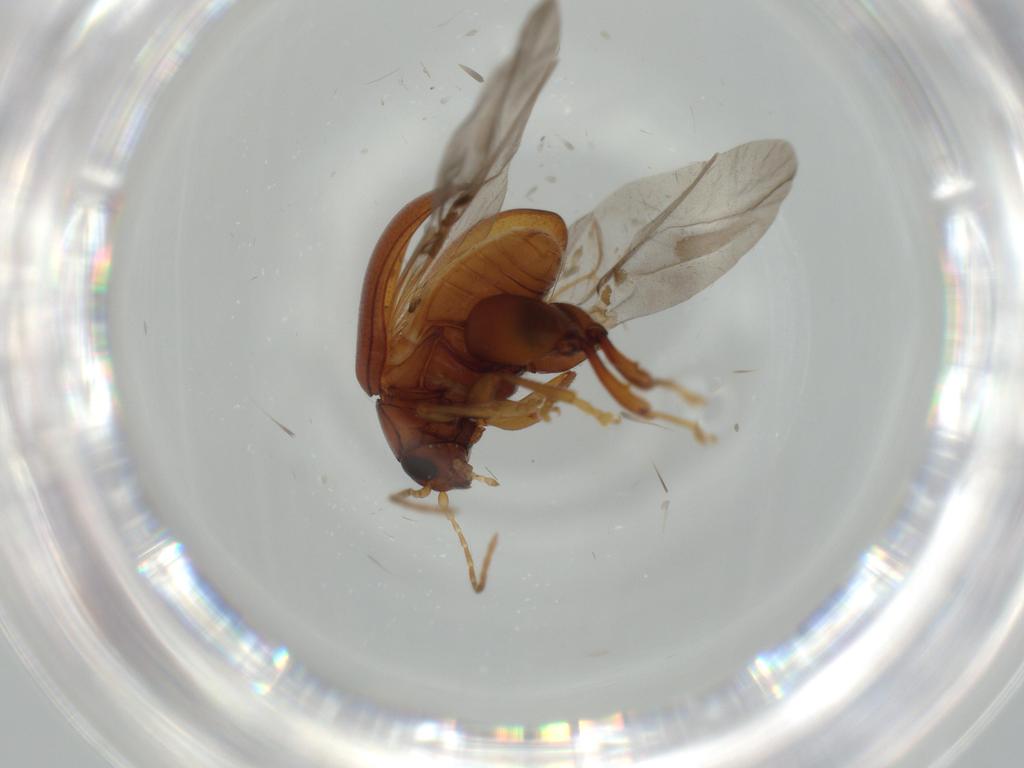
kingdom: Animalia
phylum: Arthropoda
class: Insecta
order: Coleoptera
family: Chrysomelidae
